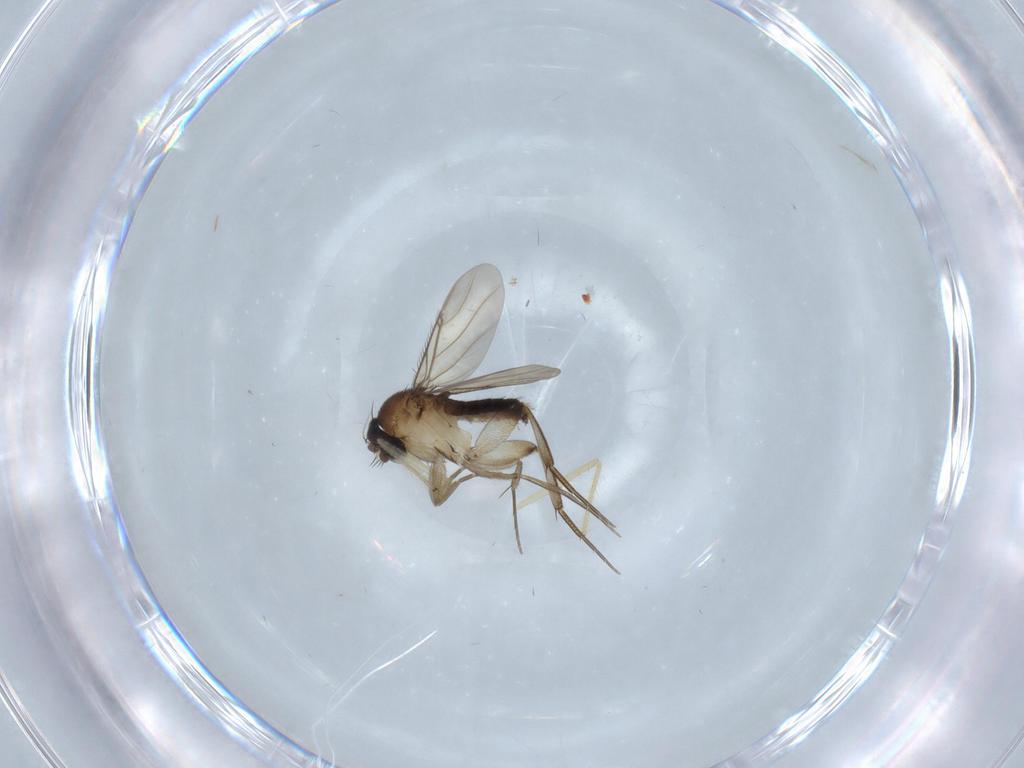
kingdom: Animalia
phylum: Arthropoda
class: Insecta
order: Diptera
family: Phoridae
